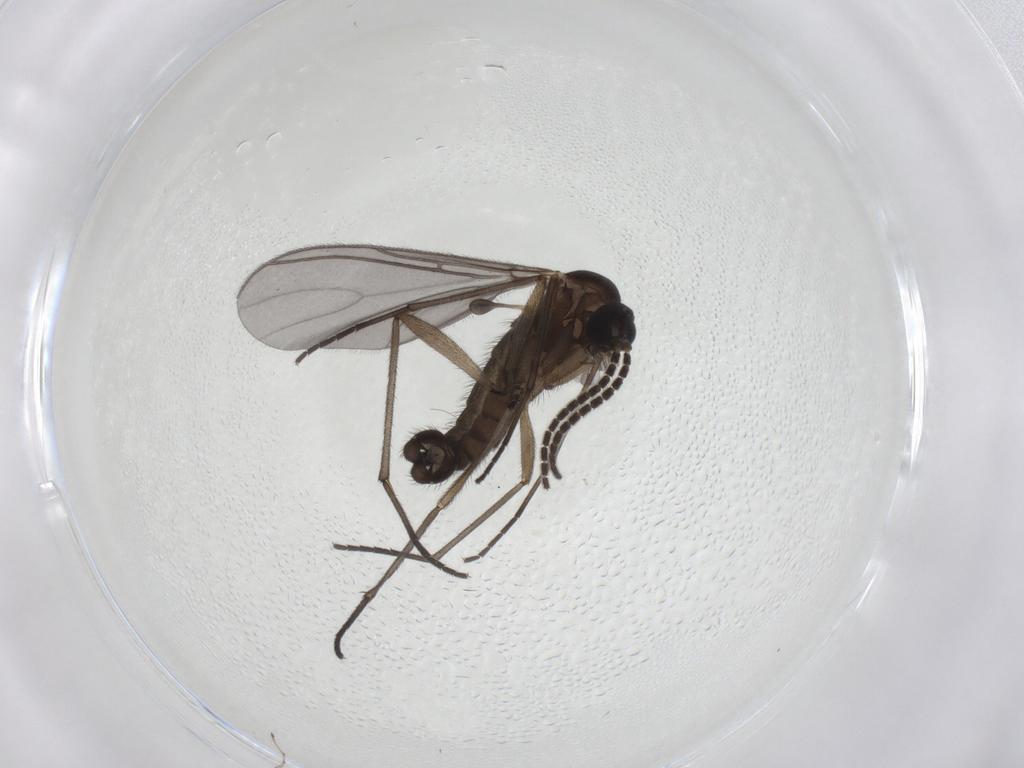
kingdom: Animalia
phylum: Arthropoda
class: Insecta
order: Diptera
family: Sciaridae
